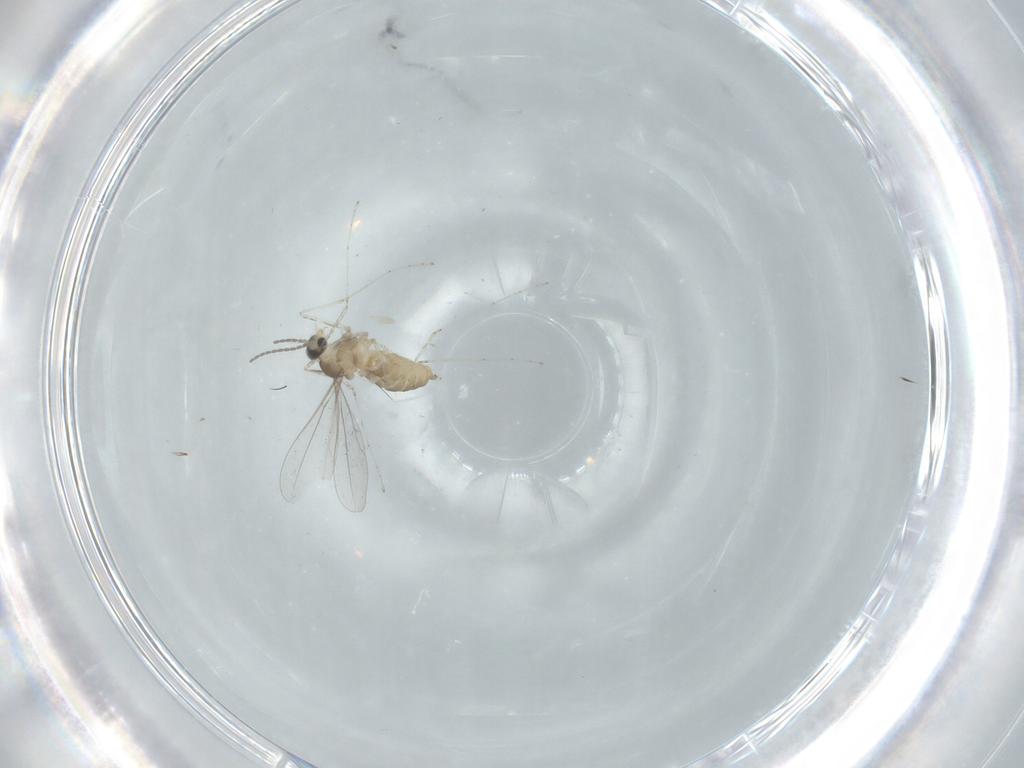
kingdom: Animalia
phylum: Arthropoda
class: Insecta
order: Diptera
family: Cecidomyiidae
